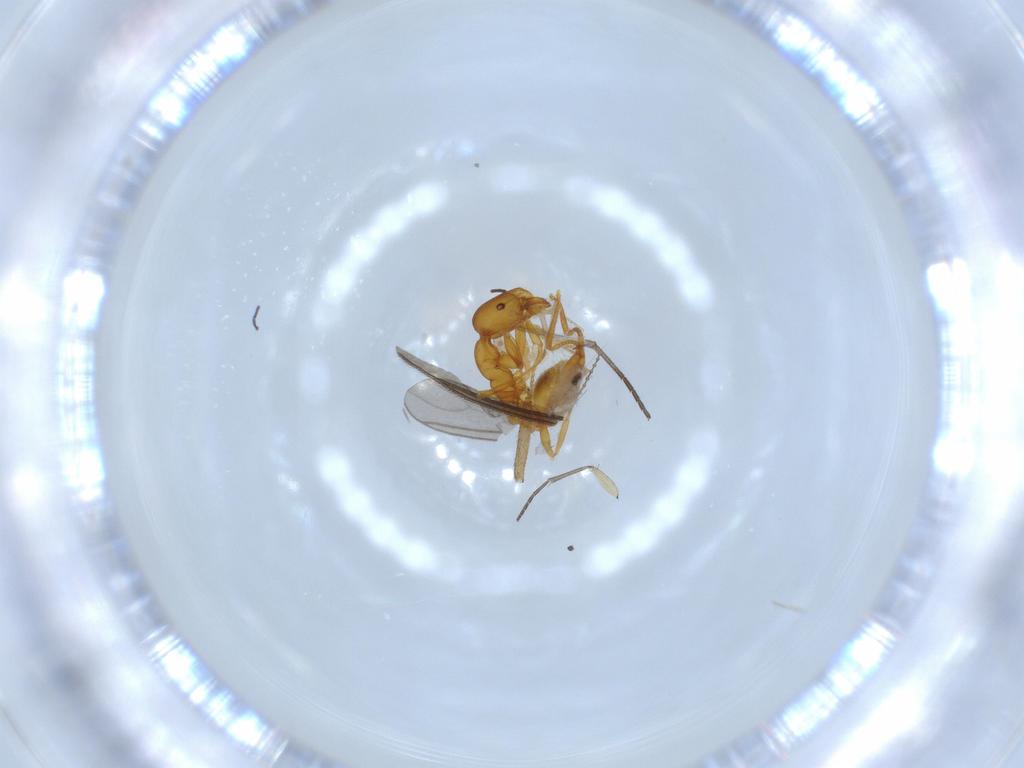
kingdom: Animalia
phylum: Arthropoda
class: Insecta
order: Hymenoptera
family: Formicidae
